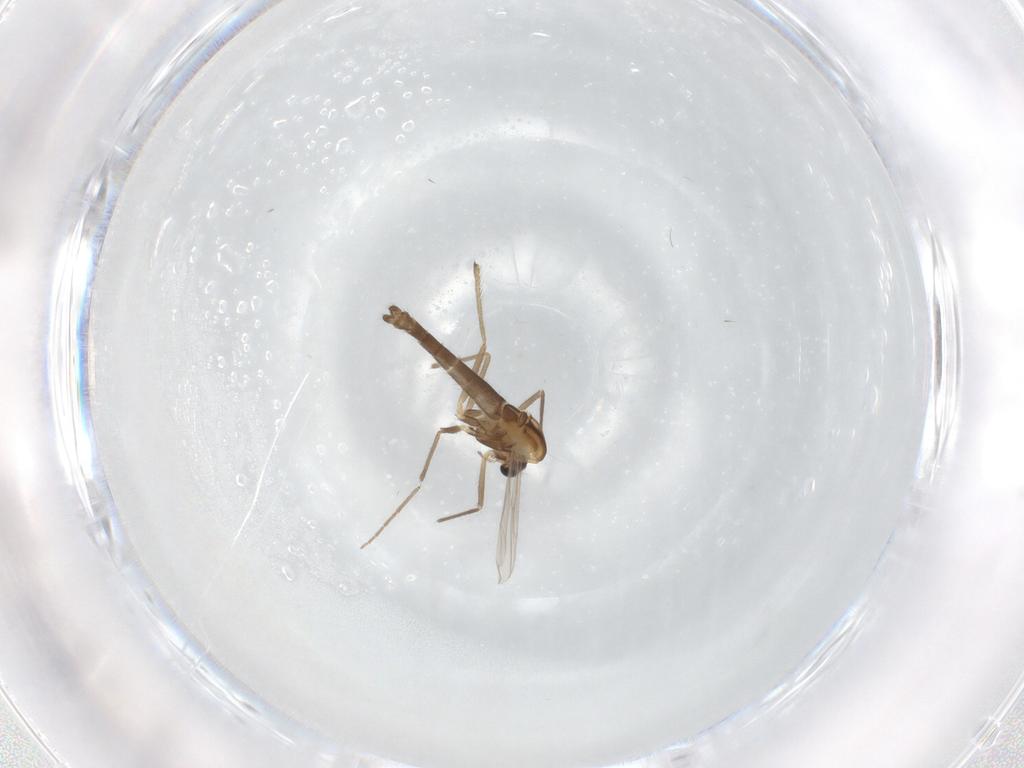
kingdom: Animalia
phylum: Arthropoda
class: Insecta
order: Diptera
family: Chironomidae
